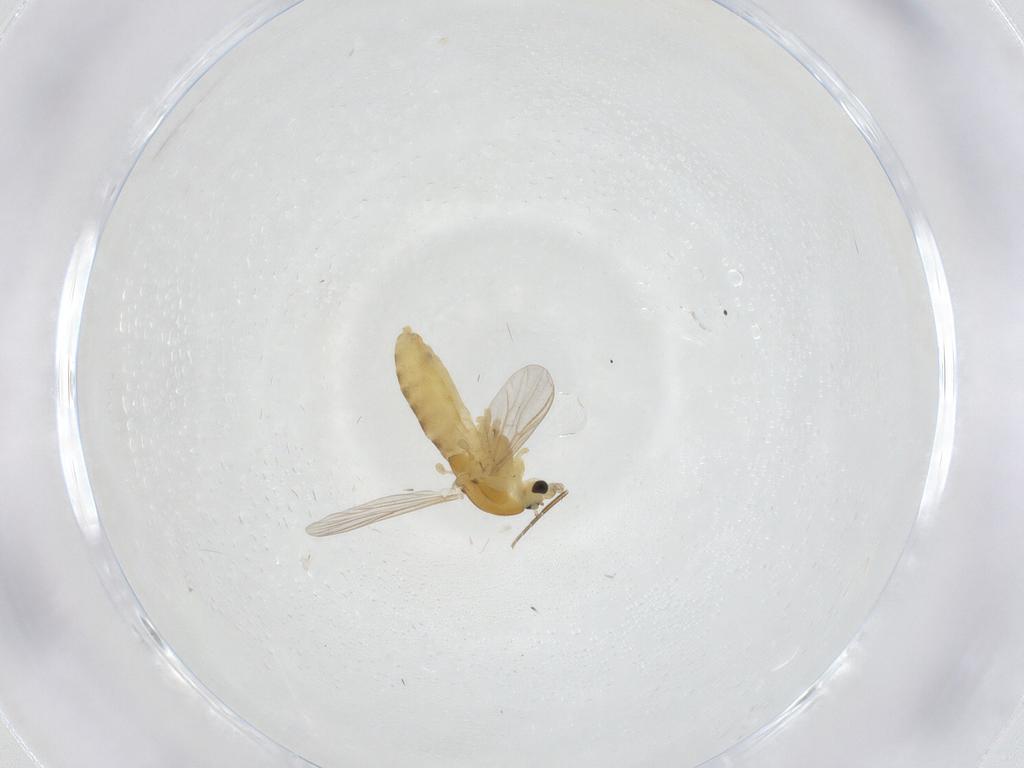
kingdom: Animalia
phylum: Arthropoda
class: Insecta
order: Diptera
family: Chironomidae
